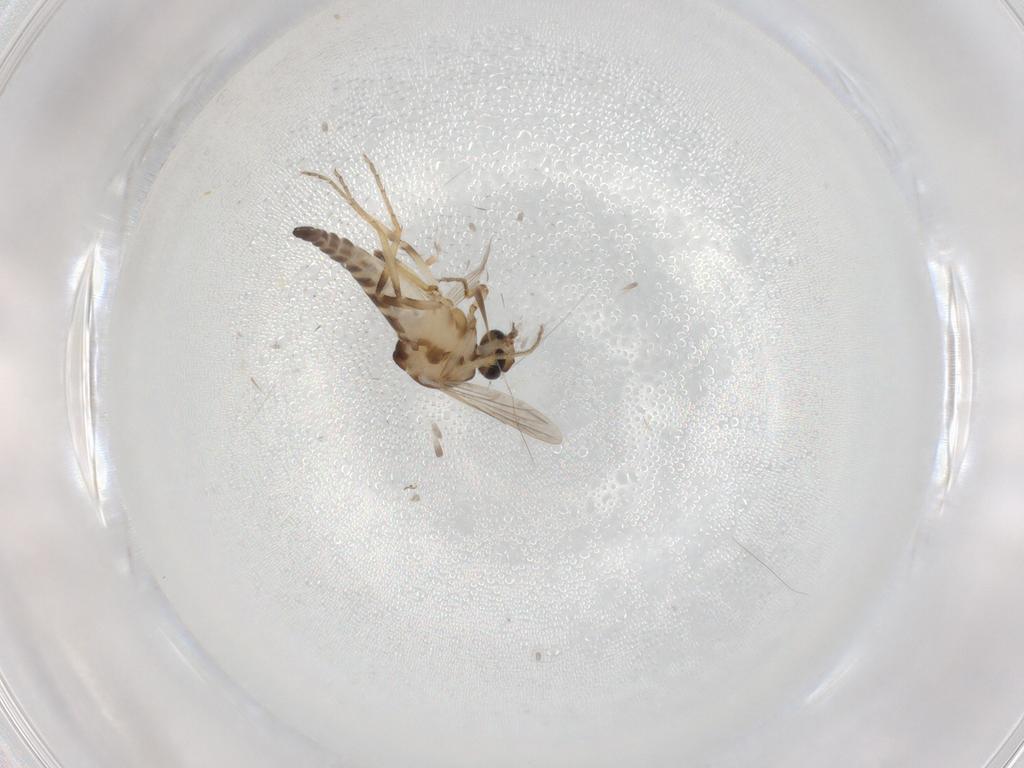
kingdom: Animalia
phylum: Arthropoda
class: Insecta
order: Diptera
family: Ceratopogonidae
